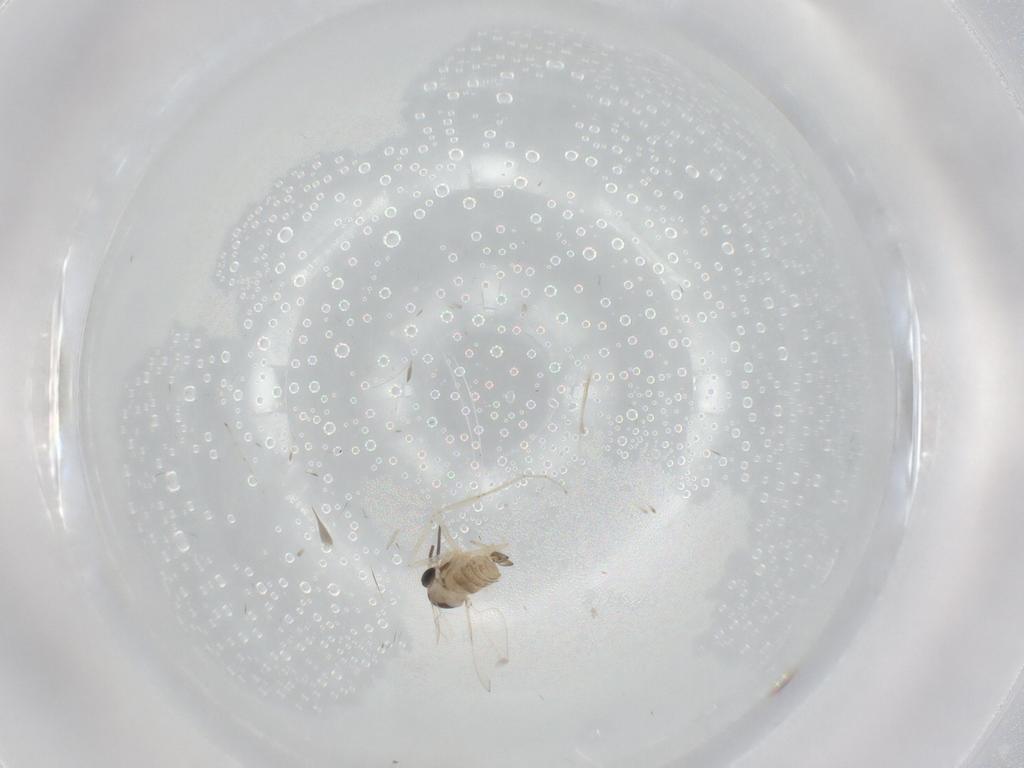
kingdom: Animalia
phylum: Arthropoda
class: Insecta
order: Diptera
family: Cecidomyiidae
